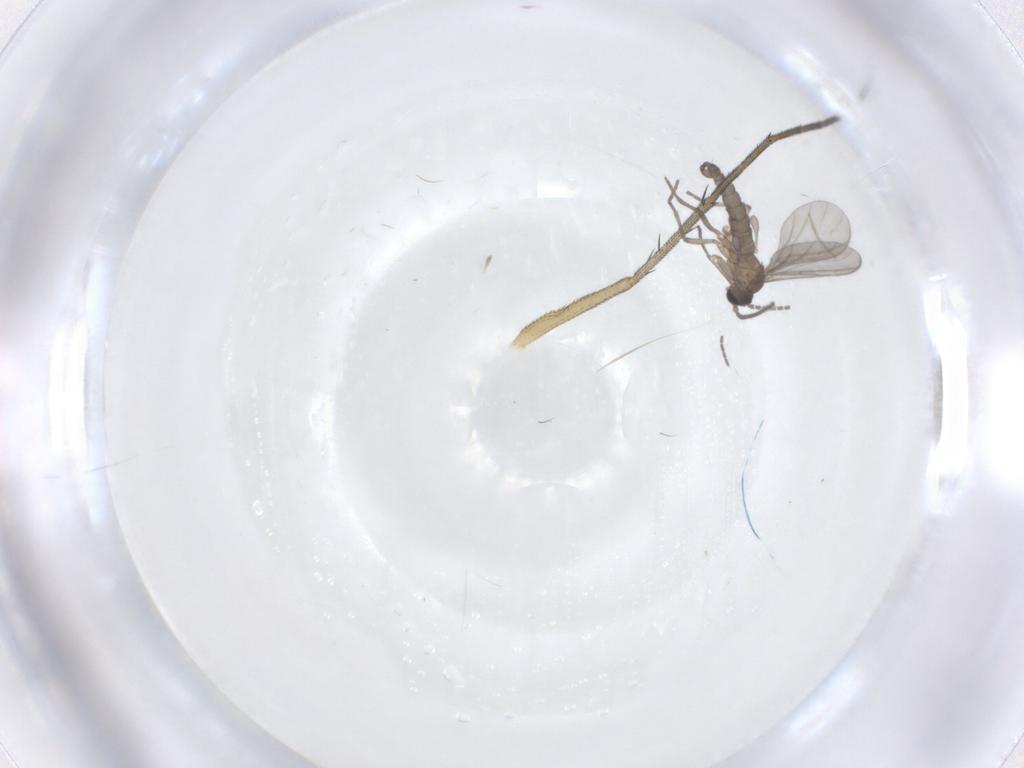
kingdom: Animalia
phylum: Arthropoda
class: Insecta
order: Diptera
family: Sciaridae
